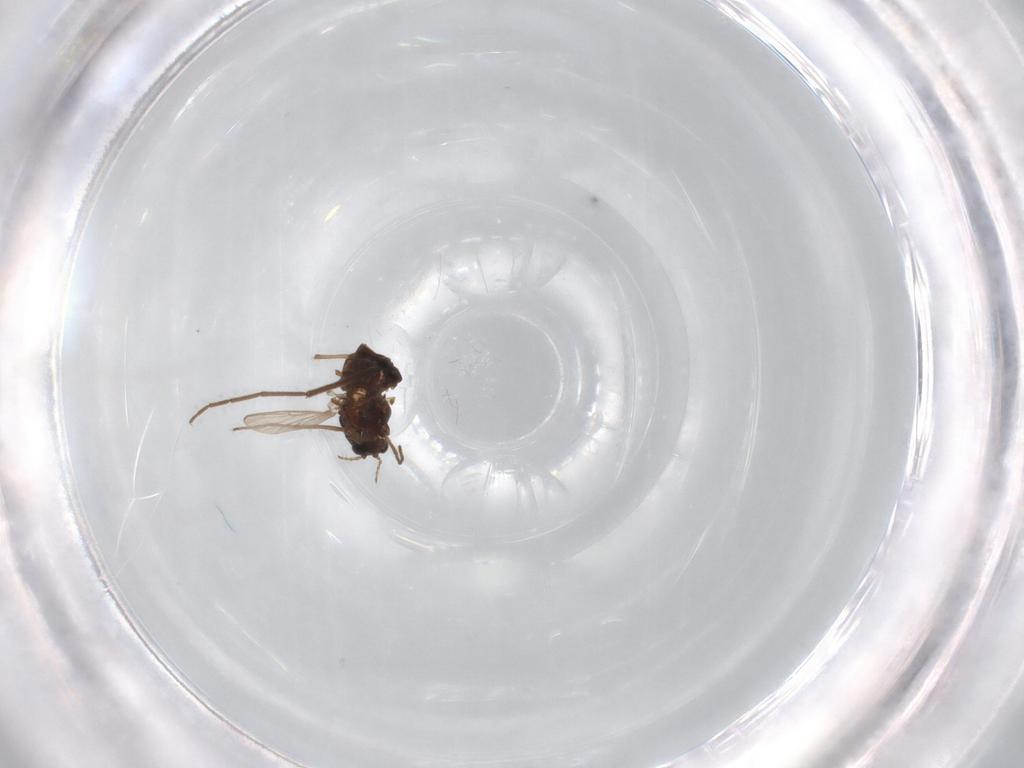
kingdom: Animalia
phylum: Arthropoda
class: Insecta
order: Diptera
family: Chironomidae
